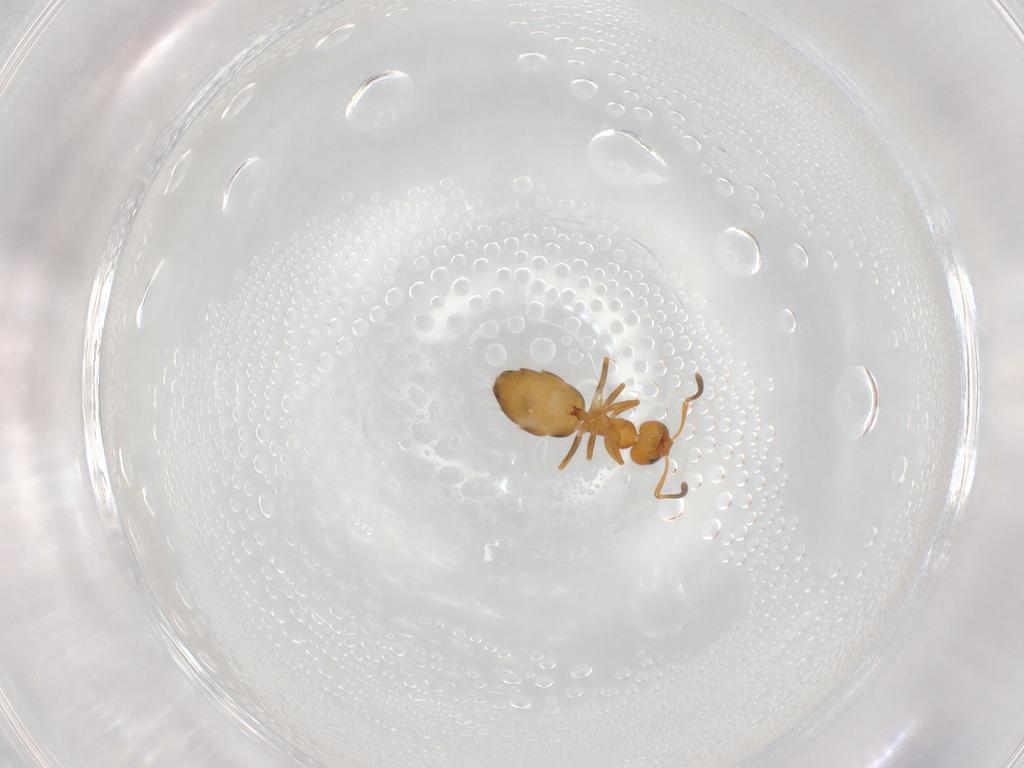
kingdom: Animalia
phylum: Arthropoda
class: Insecta
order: Hymenoptera
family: Formicidae
